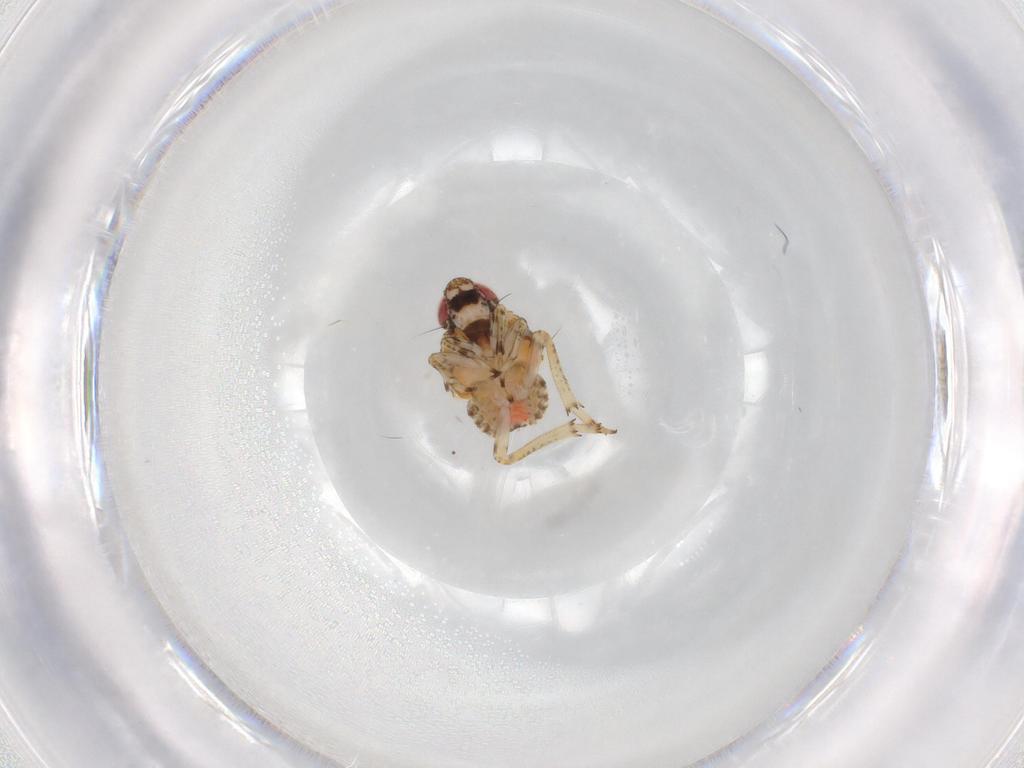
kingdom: Animalia
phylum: Arthropoda
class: Insecta
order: Hemiptera
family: Issidae
